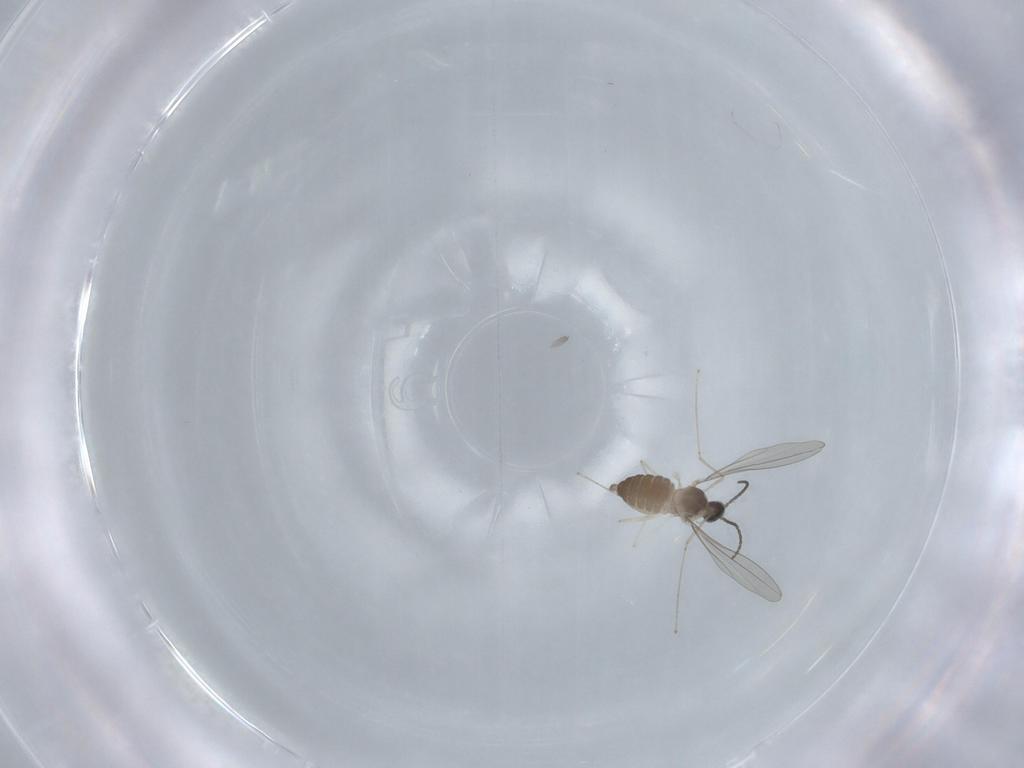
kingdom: Animalia
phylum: Arthropoda
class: Insecta
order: Diptera
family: Cecidomyiidae
